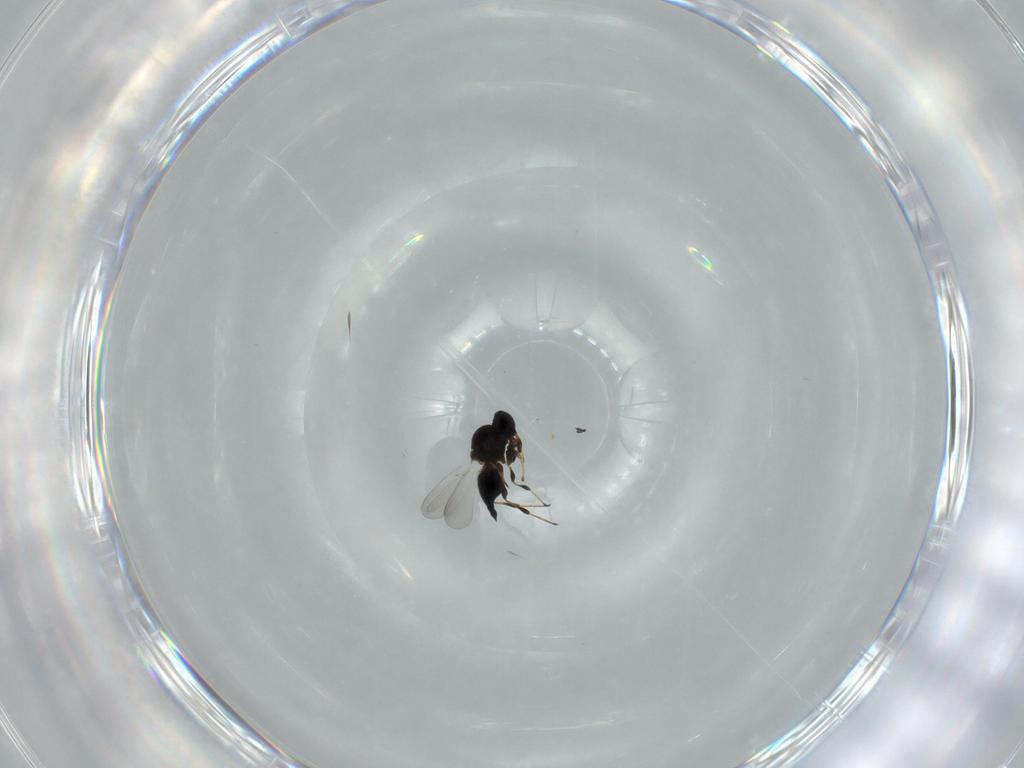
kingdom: Animalia
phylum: Arthropoda
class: Insecta
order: Hymenoptera
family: Platygastridae
